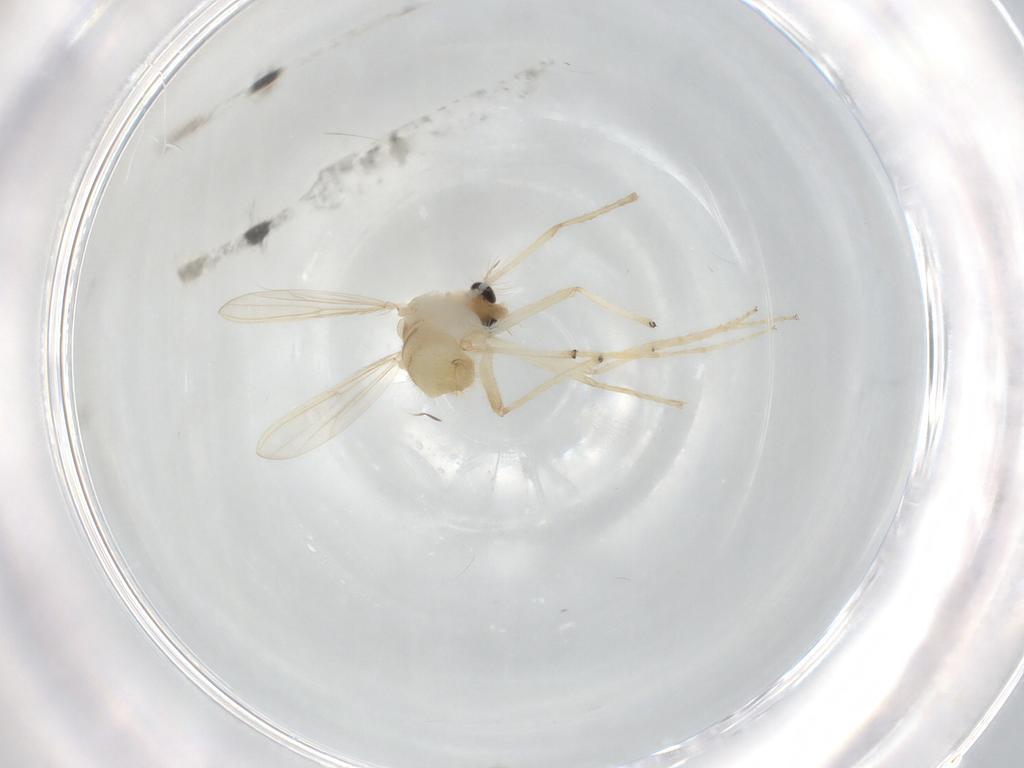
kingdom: Animalia
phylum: Arthropoda
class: Insecta
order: Diptera
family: Chironomidae
